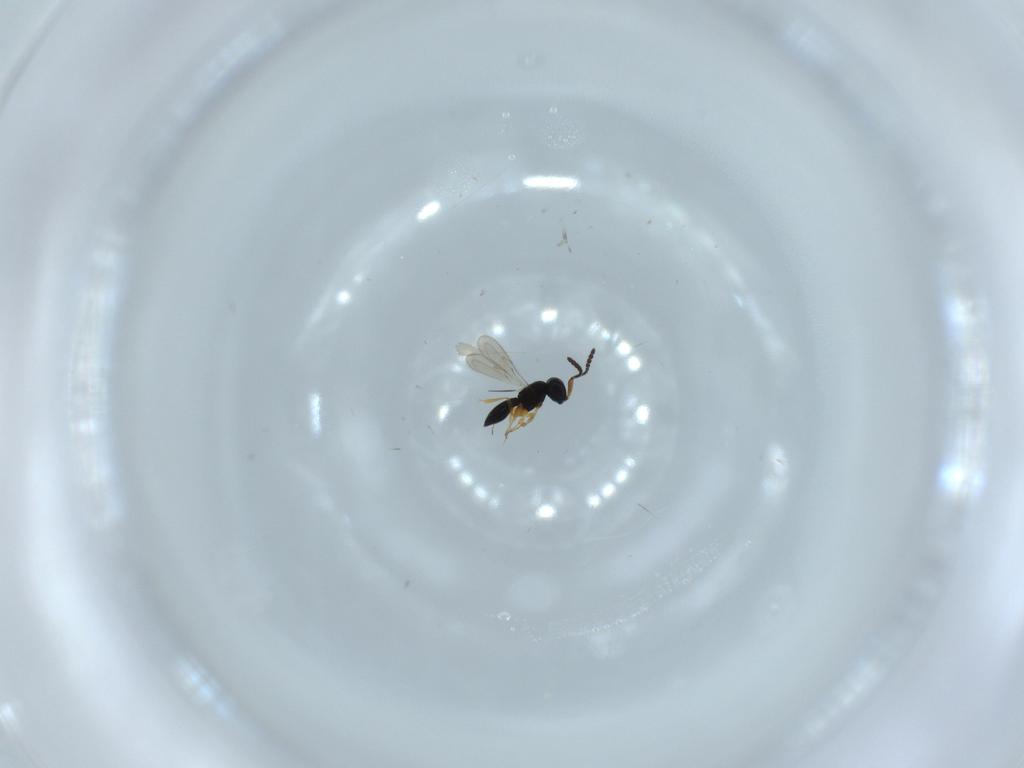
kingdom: Animalia
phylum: Arthropoda
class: Insecta
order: Hymenoptera
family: Scelionidae
